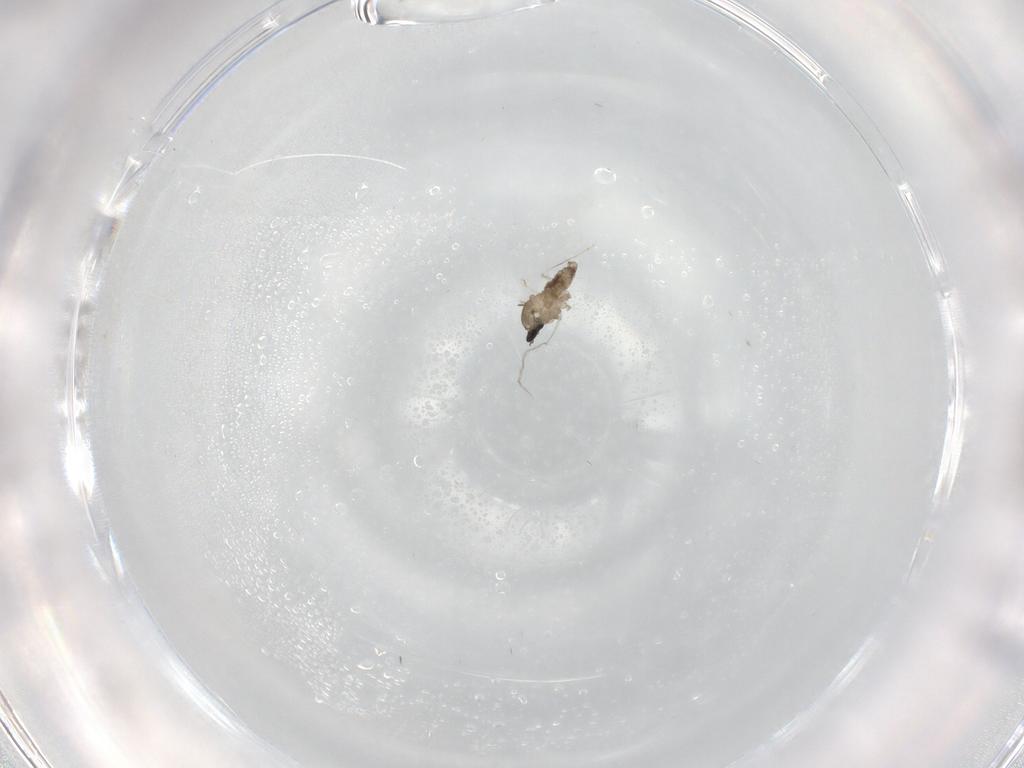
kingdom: Animalia
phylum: Arthropoda
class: Insecta
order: Diptera
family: Cecidomyiidae
